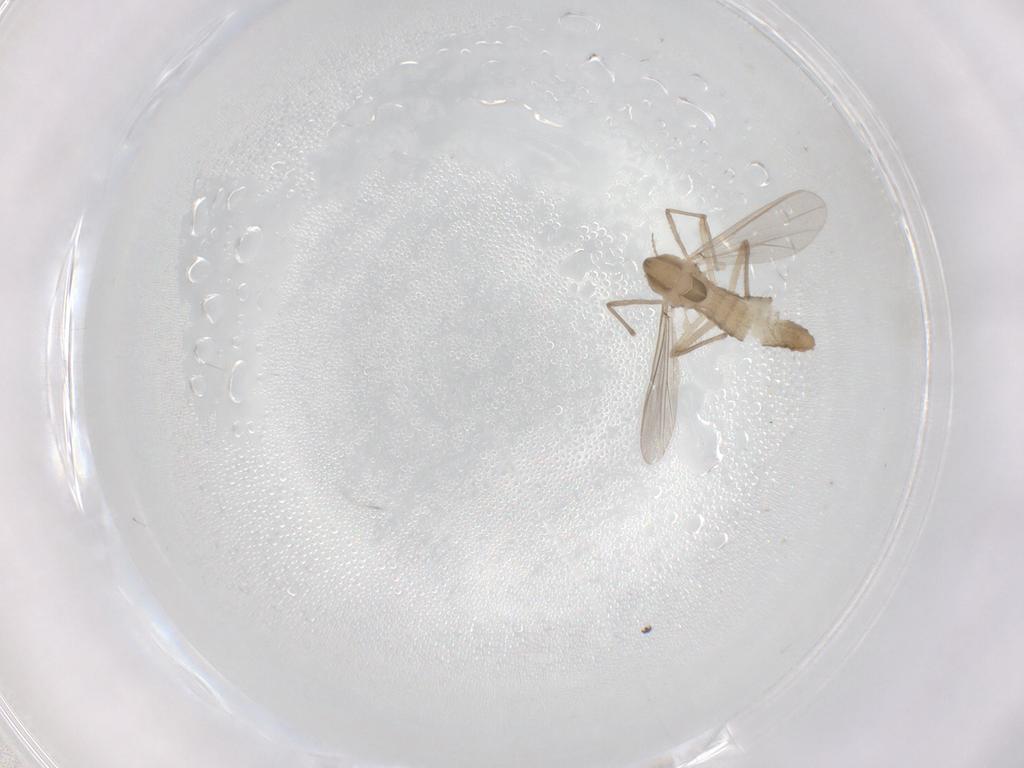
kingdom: Animalia
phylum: Arthropoda
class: Insecta
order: Diptera
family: Chironomidae
